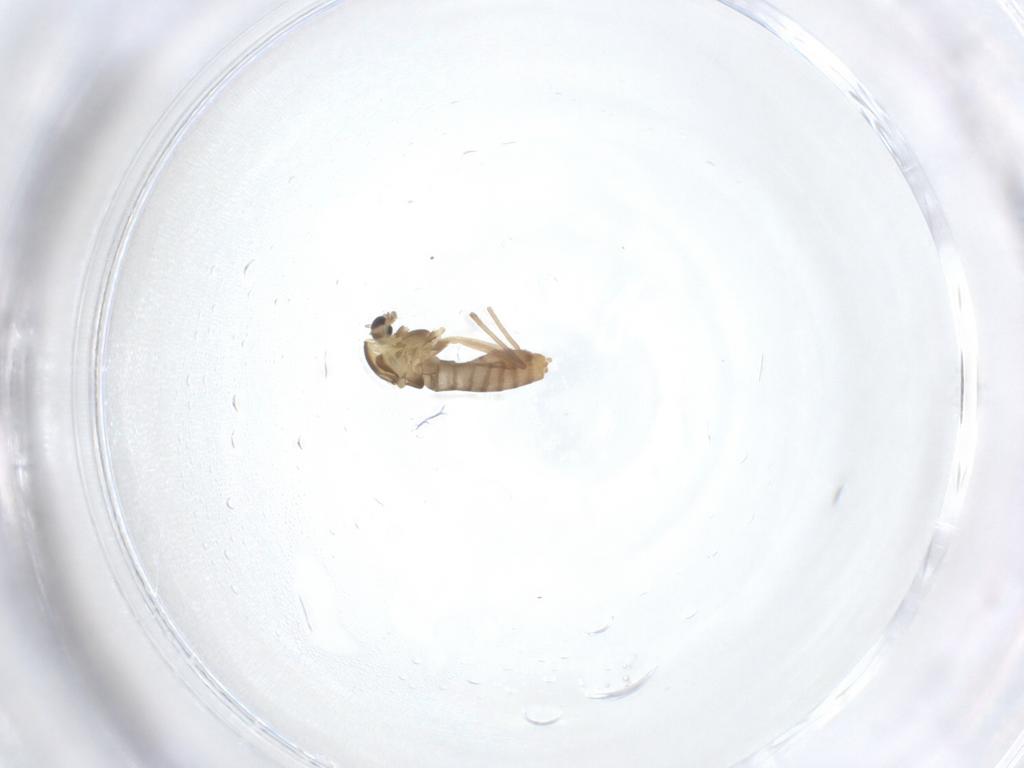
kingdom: Animalia
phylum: Arthropoda
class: Insecta
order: Diptera
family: Chironomidae
